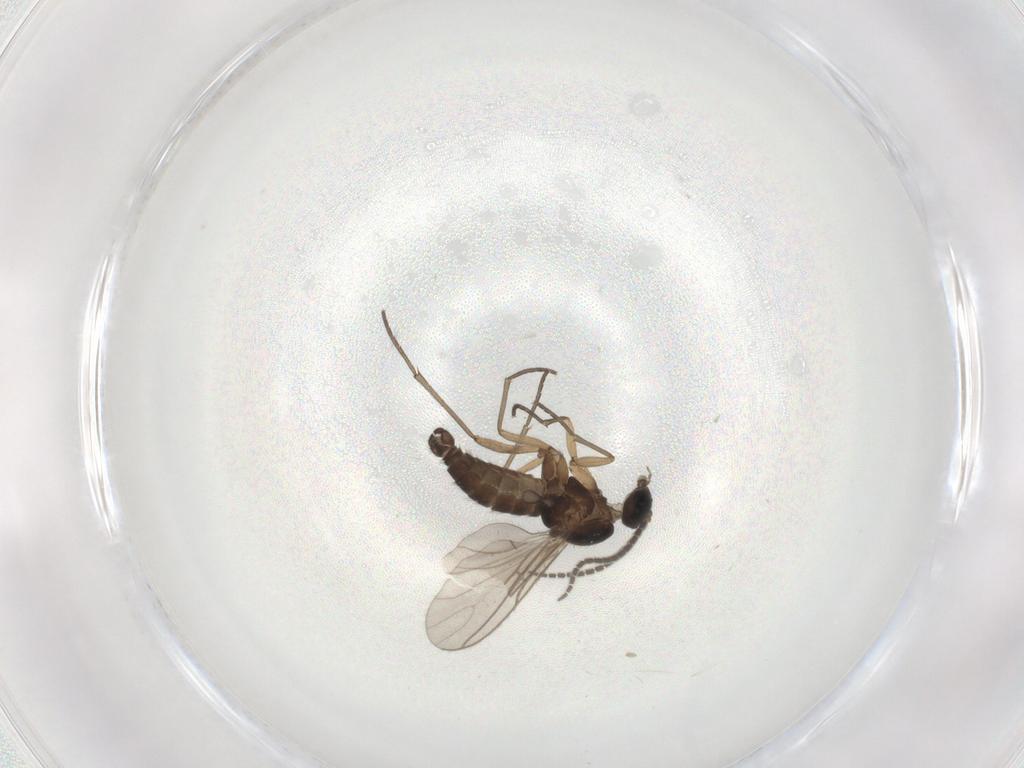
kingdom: Animalia
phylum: Arthropoda
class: Insecta
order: Diptera
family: Sciaridae
